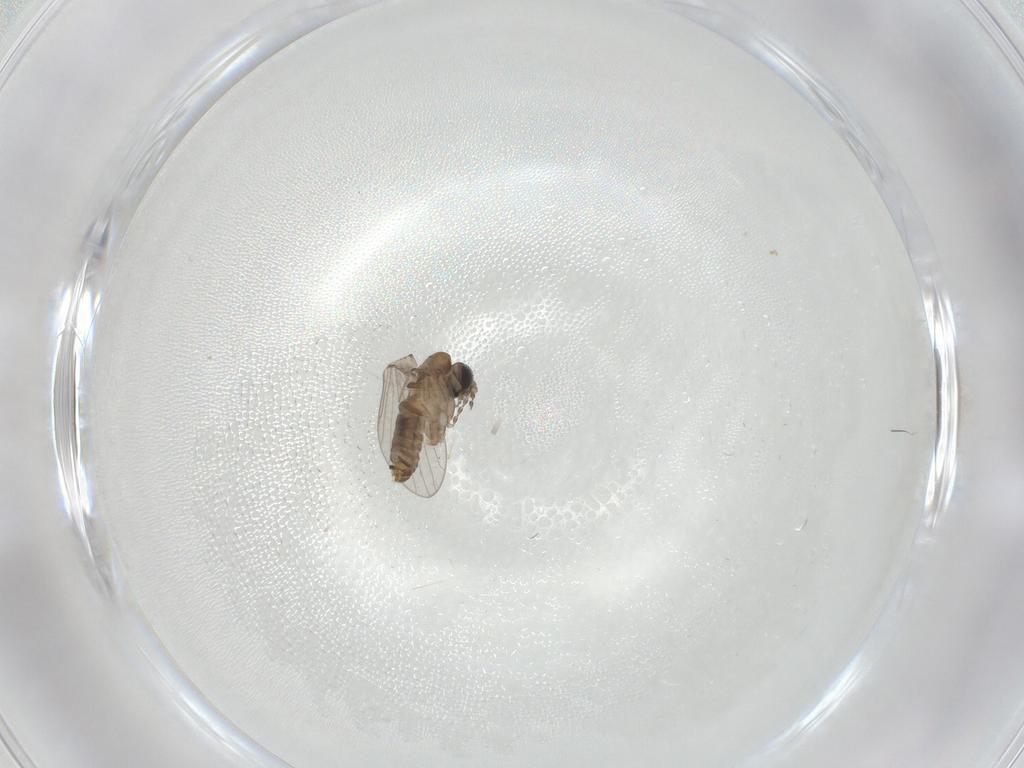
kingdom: Animalia
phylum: Arthropoda
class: Insecta
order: Diptera
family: Psychodidae
